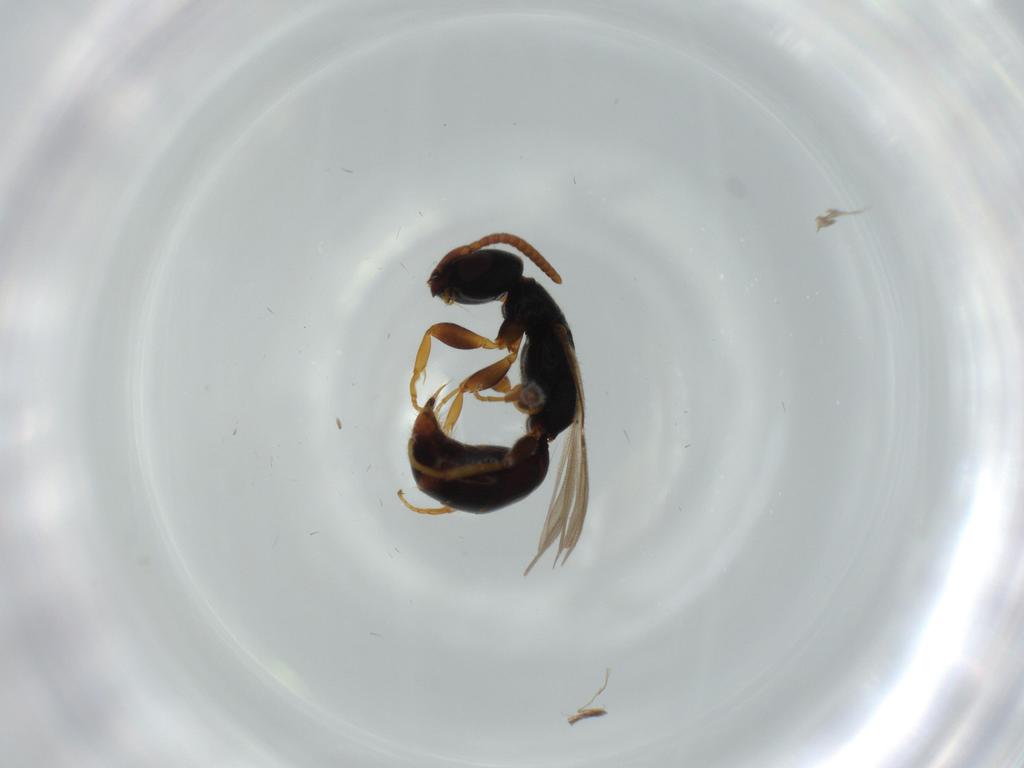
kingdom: Animalia
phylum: Arthropoda
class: Insecta
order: Hymenoptera
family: Bethylidae
